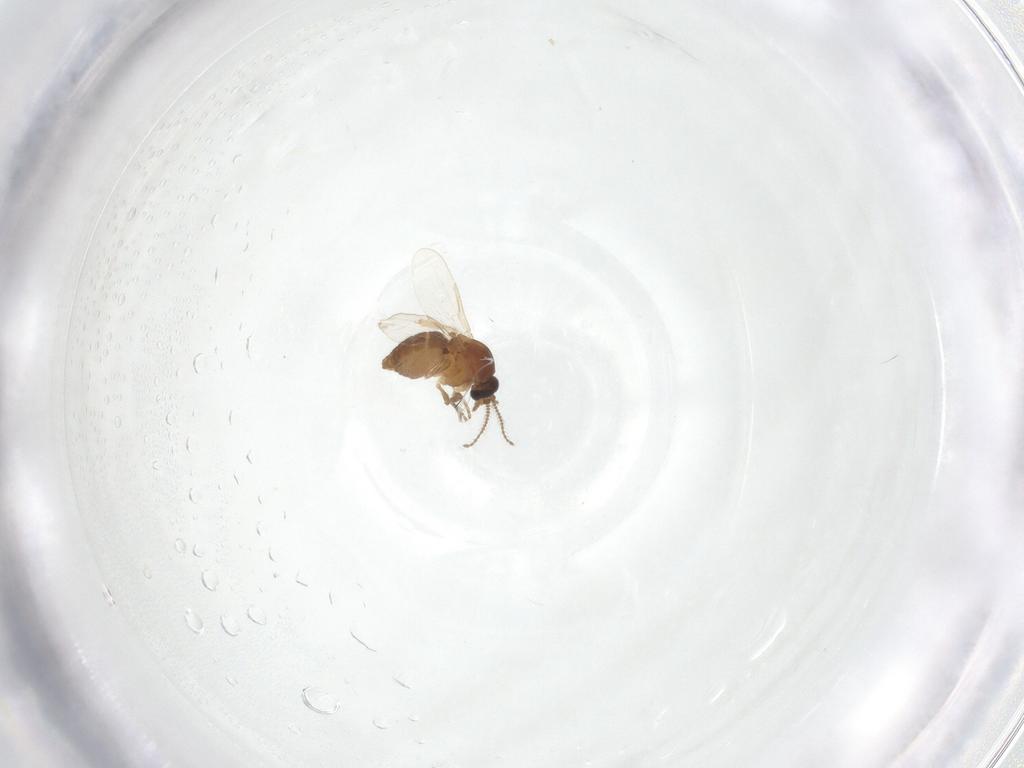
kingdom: Animalia
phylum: Arthropoda
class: Insecta
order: Diptera
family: Ceratopogonidae
